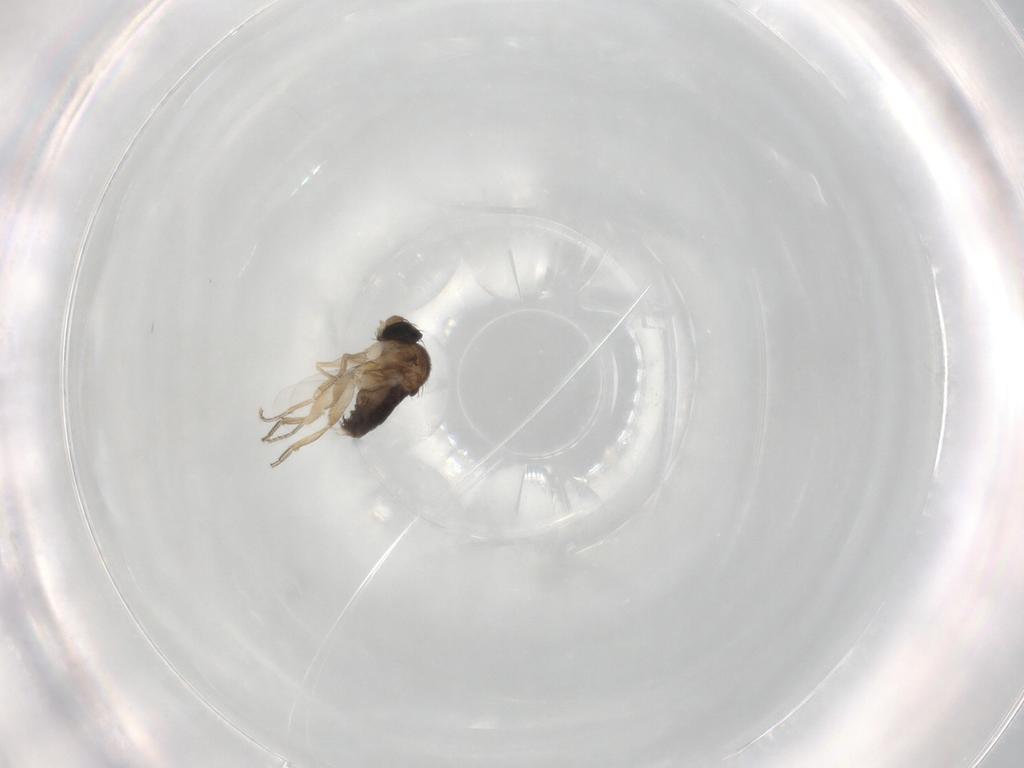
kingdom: Animalia
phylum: Arthropoda
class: Insecta
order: Diptera
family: Phoridae
